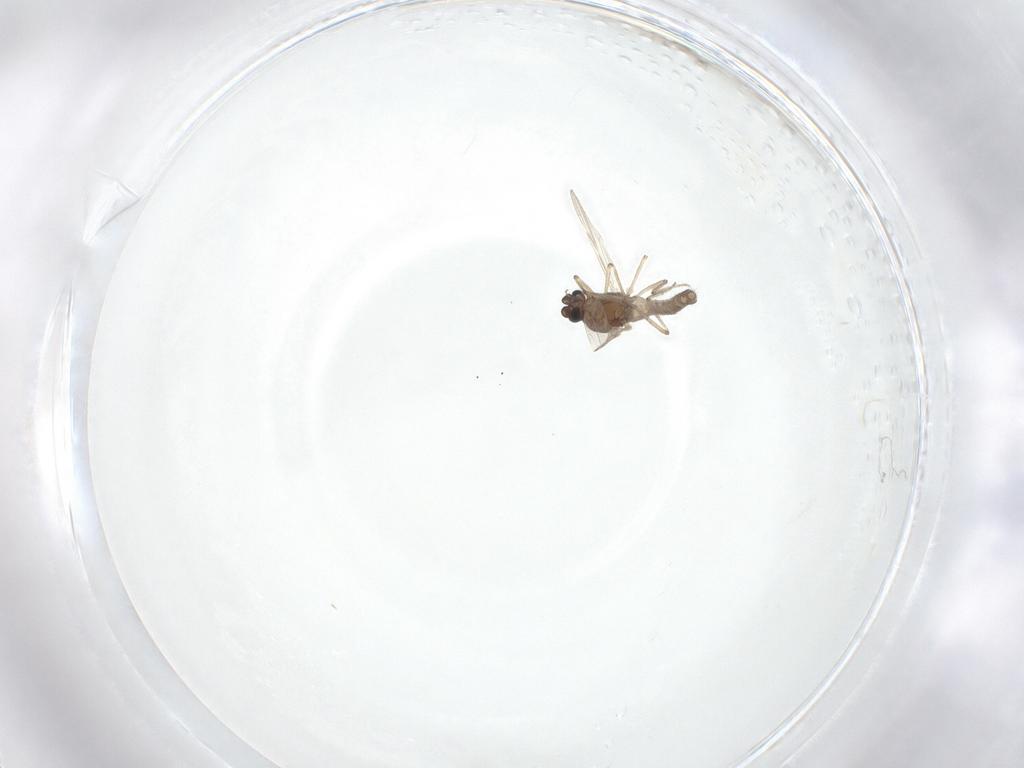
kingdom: Animalia
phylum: Arthropoda
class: Insecta
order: Diptera
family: Ceratopogonidae
